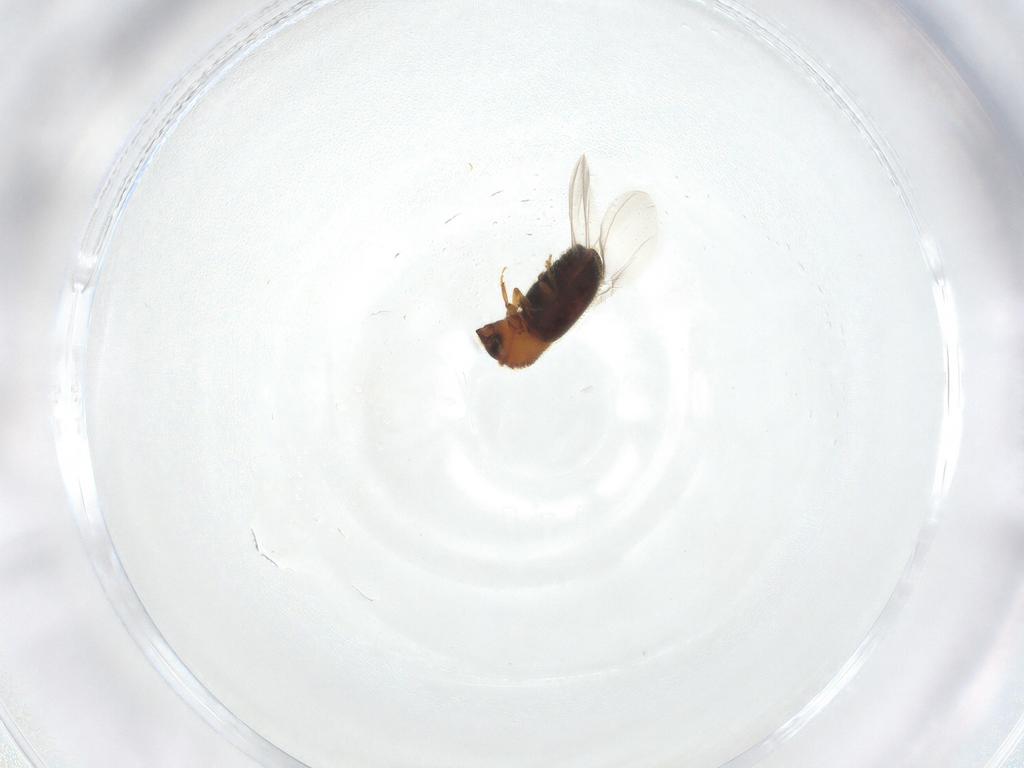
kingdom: Animalia
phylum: Arthropoda
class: Insecta
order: Coleoptera
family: Curculionidae
